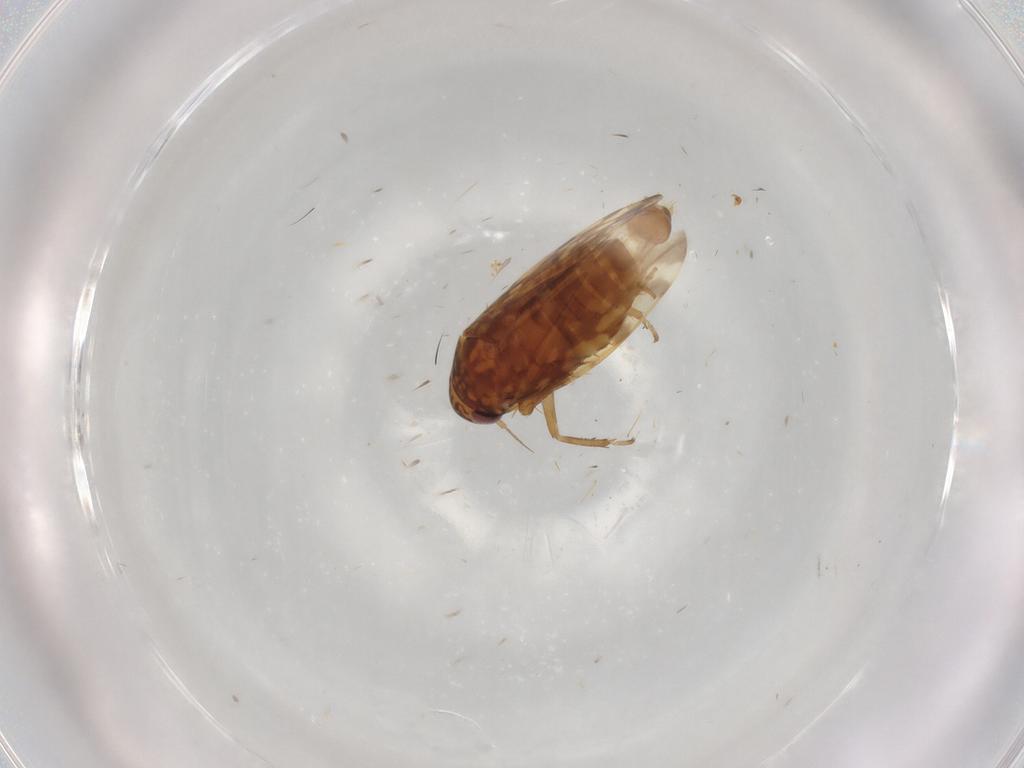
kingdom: Animalia
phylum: Arthropoda
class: Insecta
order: Hemiptera
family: Cicadellidae
